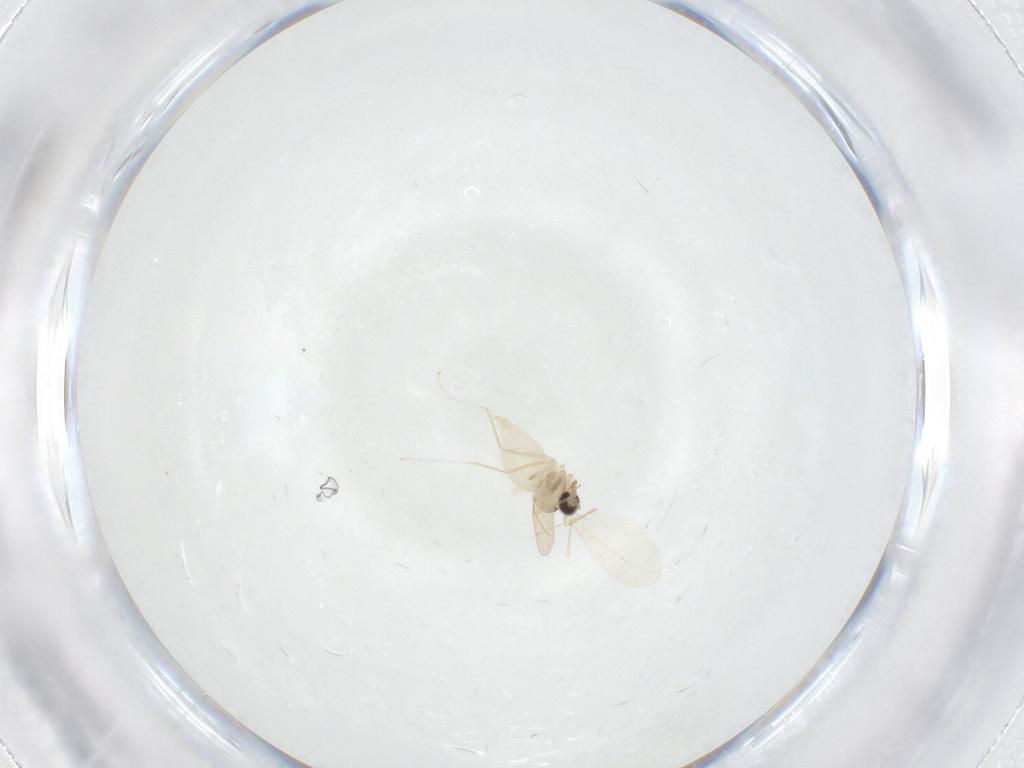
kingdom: Animalia
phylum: Arthropoda
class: Insecta
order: Diptera
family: Cecidomyiidae
